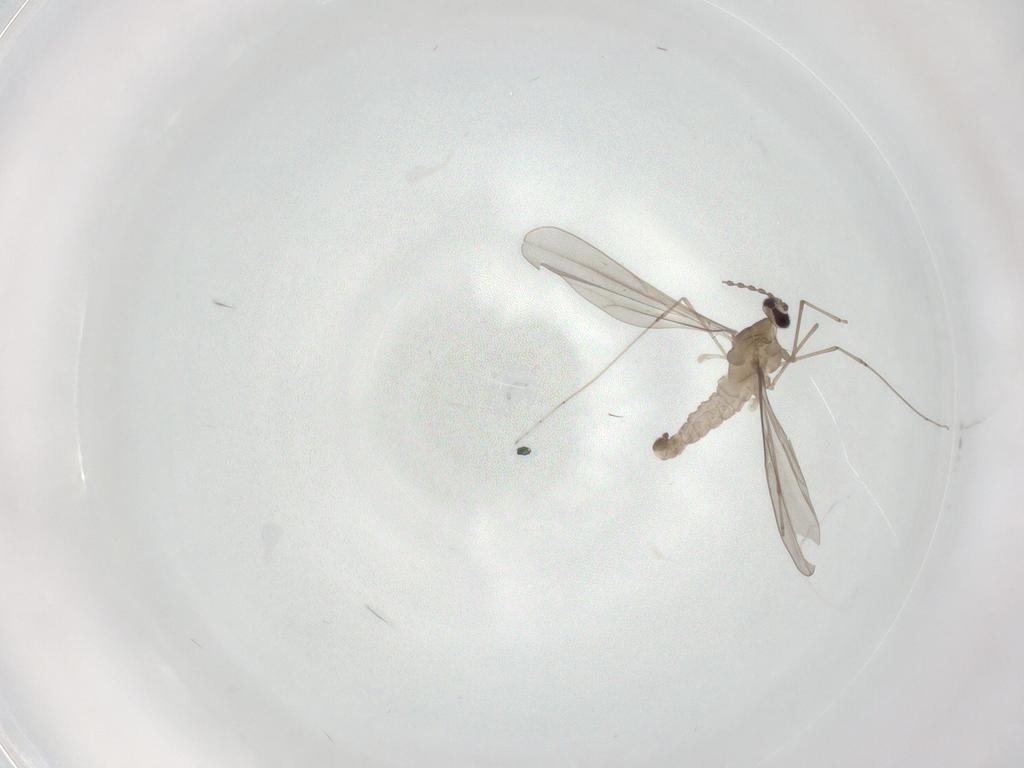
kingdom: Animalia
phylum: Arthropoda
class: Insecta
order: Diptera
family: Cecidomyiidae
